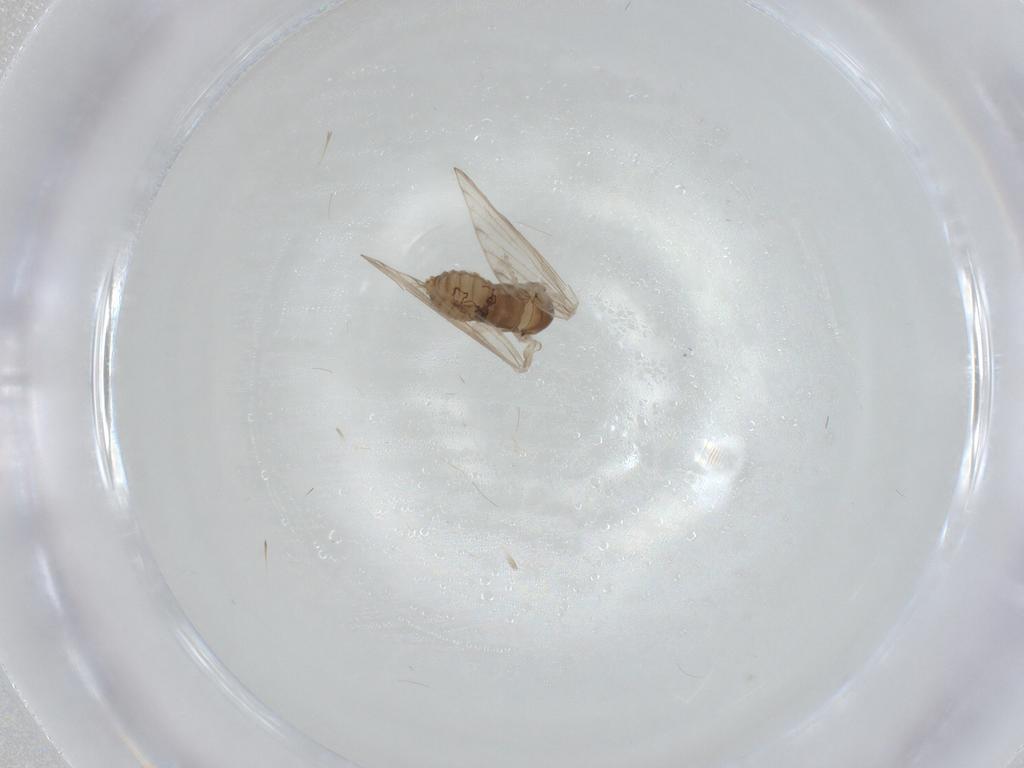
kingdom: Animalia
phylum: Arthropoda
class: Insecta
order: Diptera
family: Psychodidae
